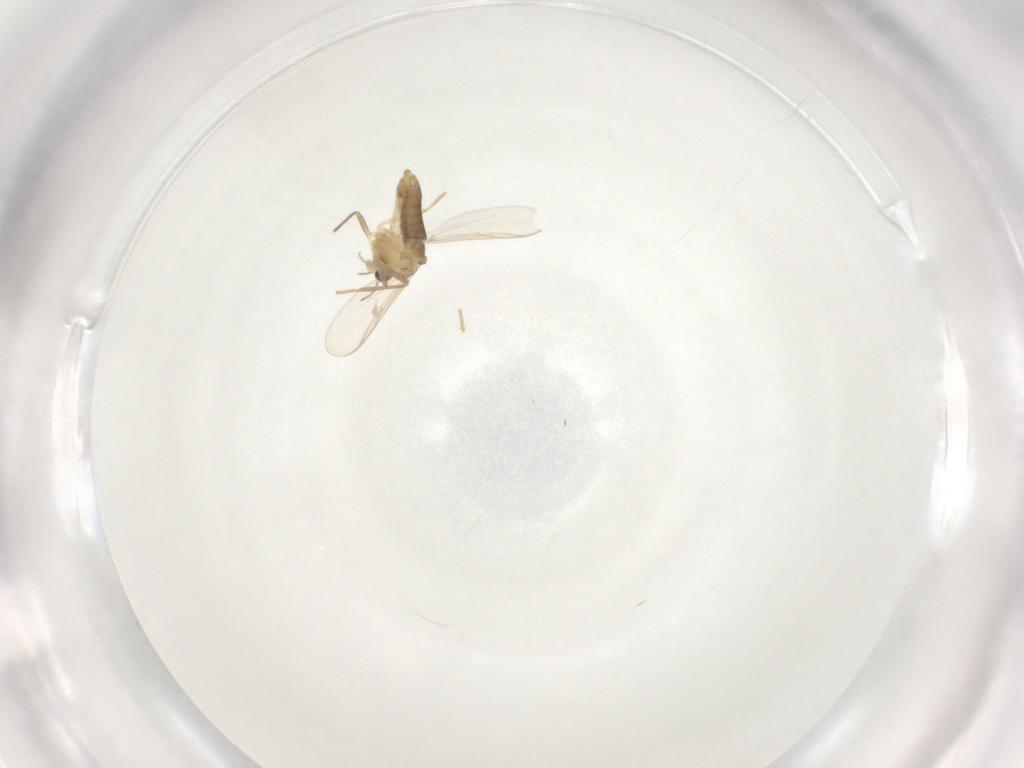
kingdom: Animalia
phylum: Arthropoda
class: Insecta
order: Diptera
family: Chironomidae
